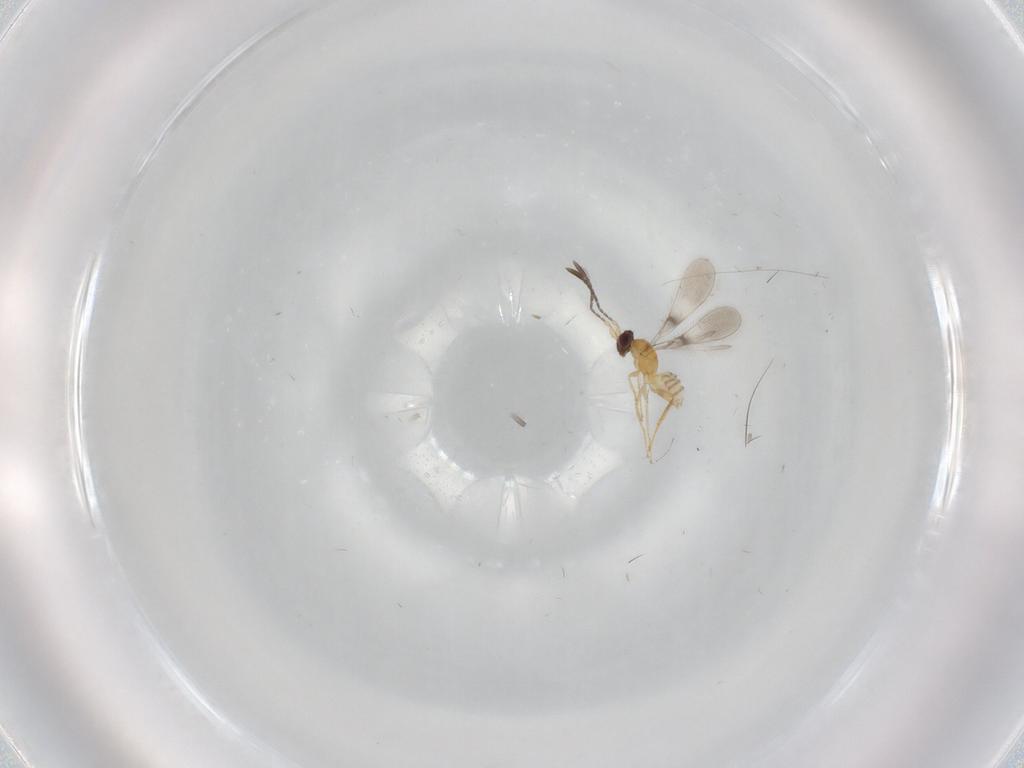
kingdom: Animalia
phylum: Arthropoda
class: Insecta
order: Hymenoptera
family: Mymaridae
